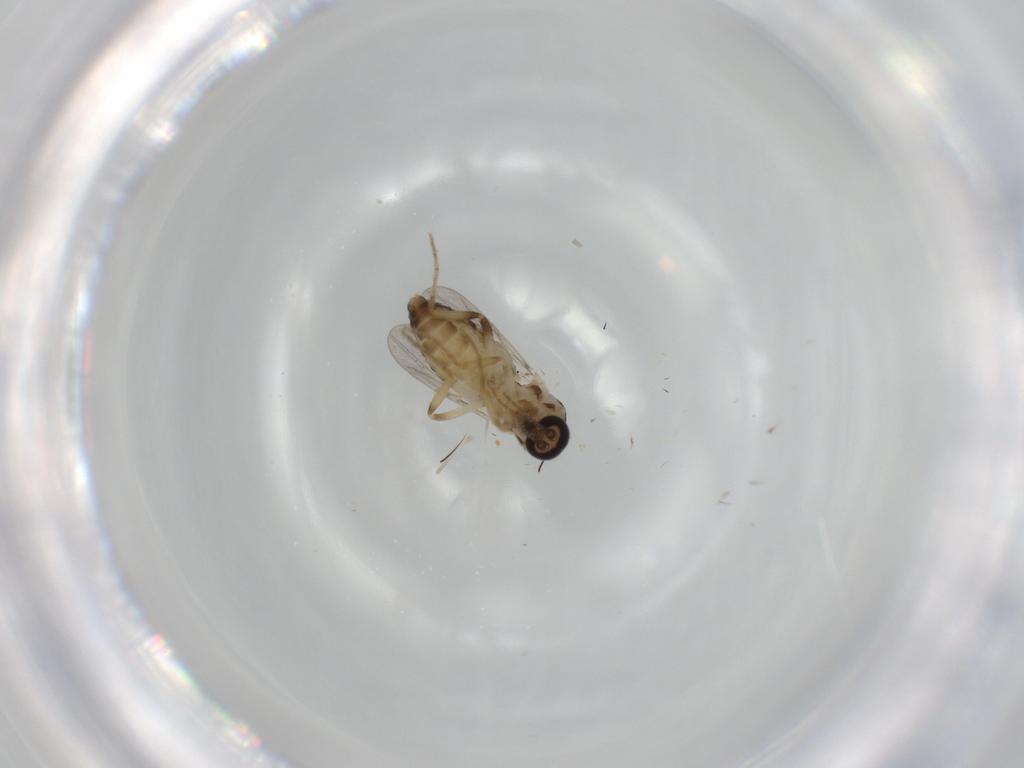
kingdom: Animalia
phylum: Arthropoda
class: Insecta
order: Diptera
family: Ceratopogonidae
